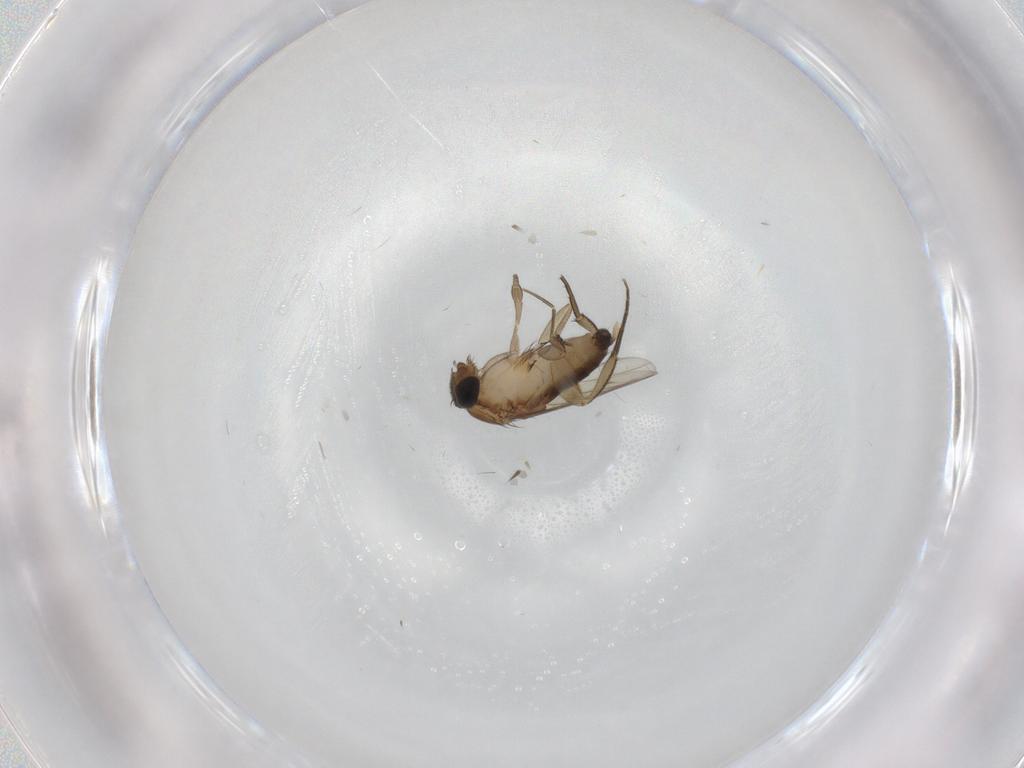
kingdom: Animalia
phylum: Arthropoda
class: Insecta
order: Diptera
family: Phoridae
